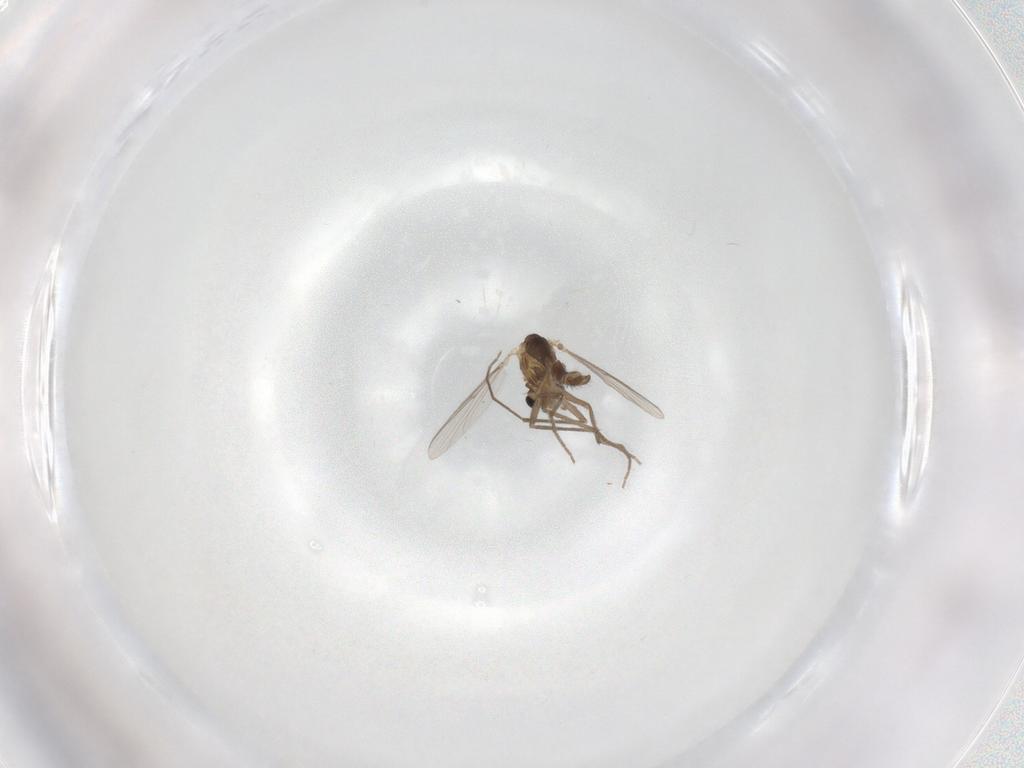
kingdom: Animalia
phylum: Arthropoda
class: Insecta
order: Diptera
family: Chironomidae
